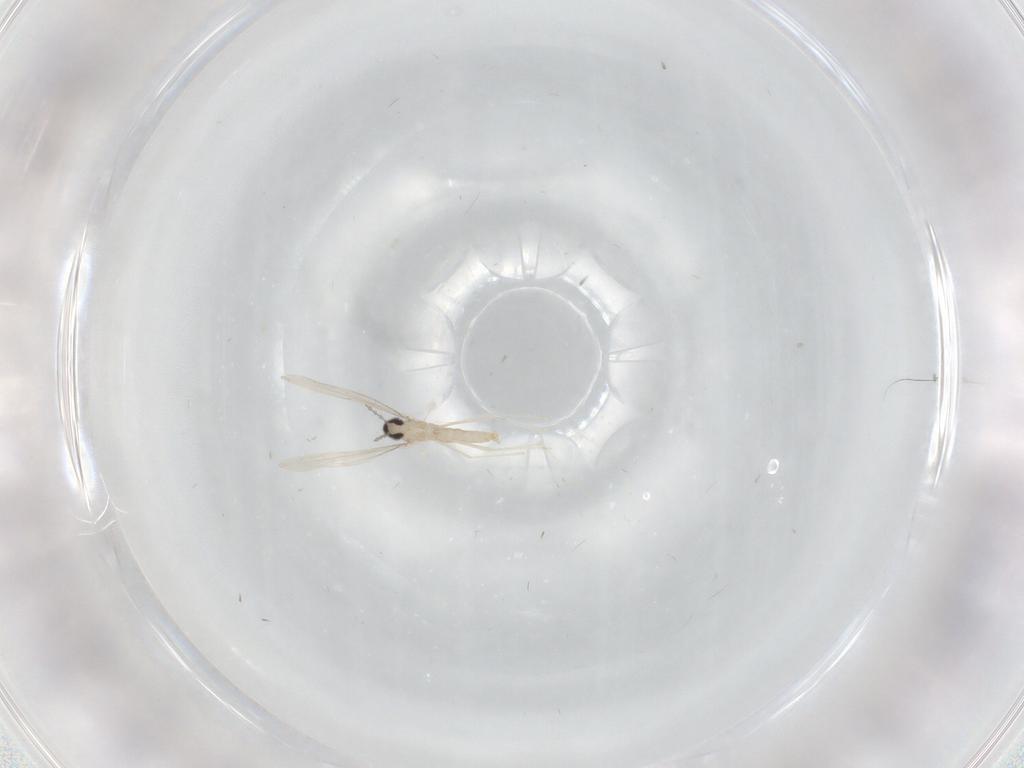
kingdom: Animalia
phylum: Arthropoda
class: Insecta
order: Diptera
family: Cecidomyiidae
